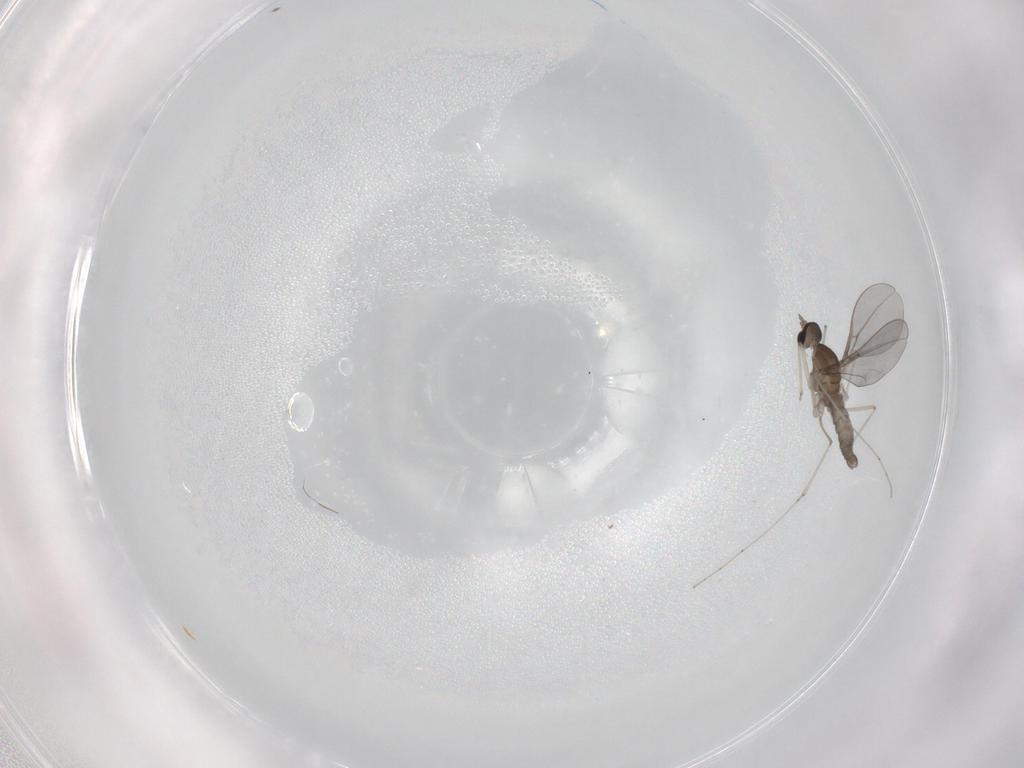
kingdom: Animalia
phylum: Arthropoda
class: Insecta
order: Diptera
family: Cecidomyiidae
